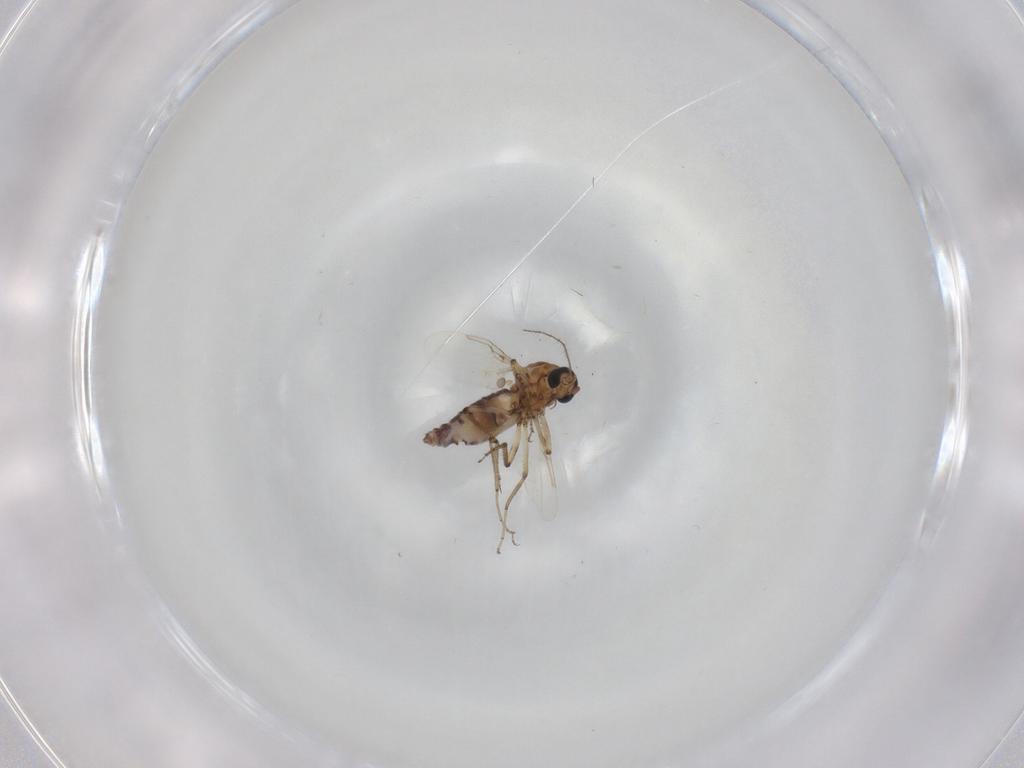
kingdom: Animalia
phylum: Arthropoda
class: Insecta
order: Diptera
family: Ceratopogonidae
